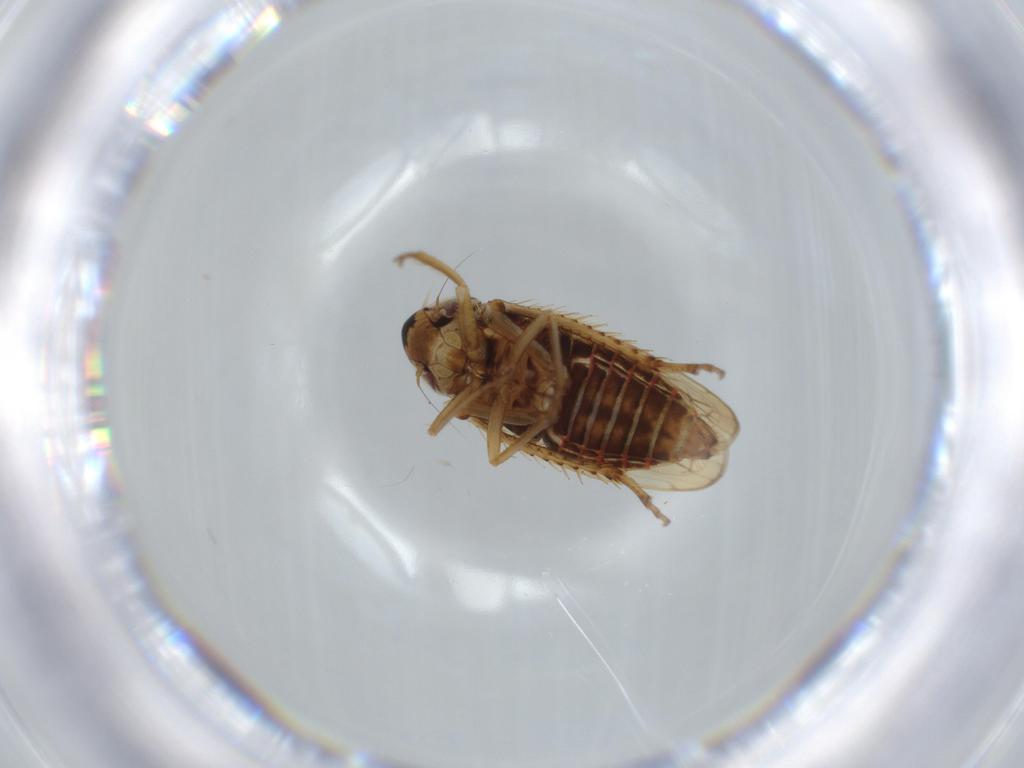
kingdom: Animalia
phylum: Arthropoda
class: Insecta
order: Hemiptera
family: Cicadellidae
